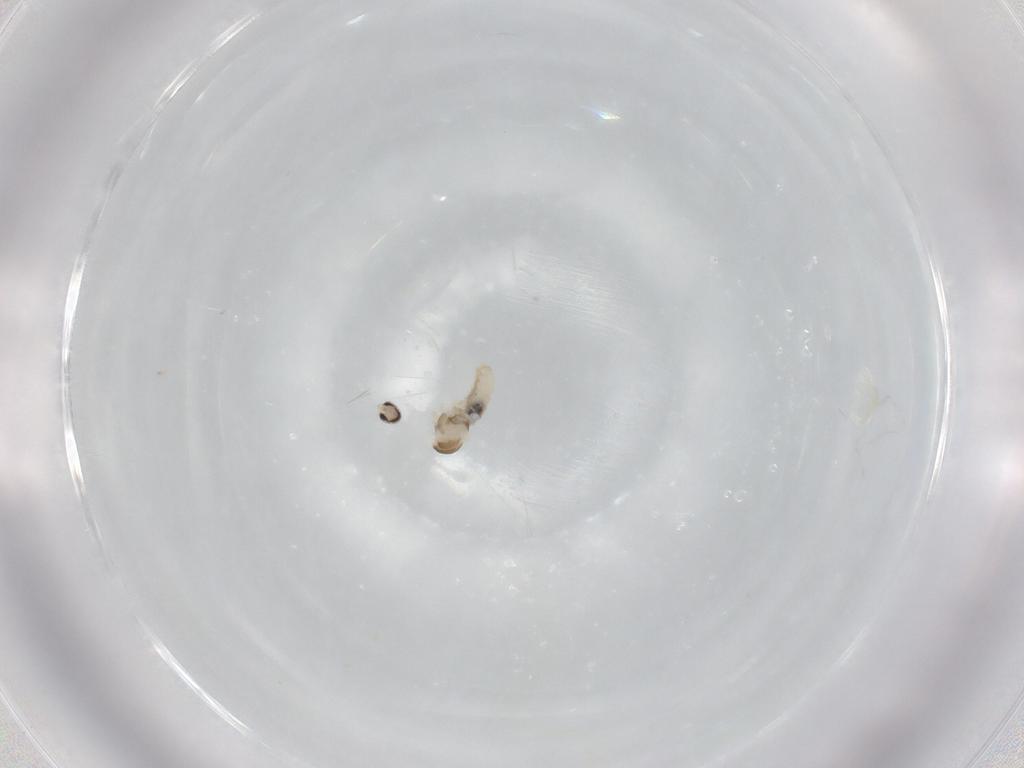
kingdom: Animalia
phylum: Arthropoda
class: Insecta
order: Diptera
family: Cecidomyiidae
